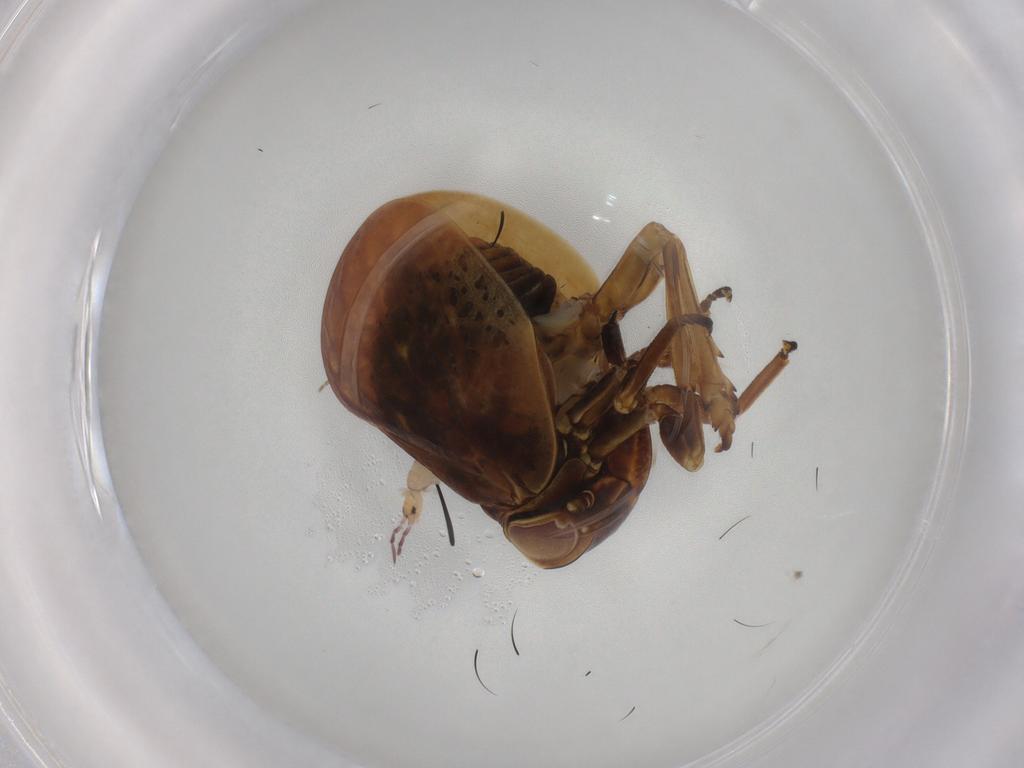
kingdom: Animalia
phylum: Arthropoda
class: Insecta
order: Hemiptera
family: Nogodinidae
